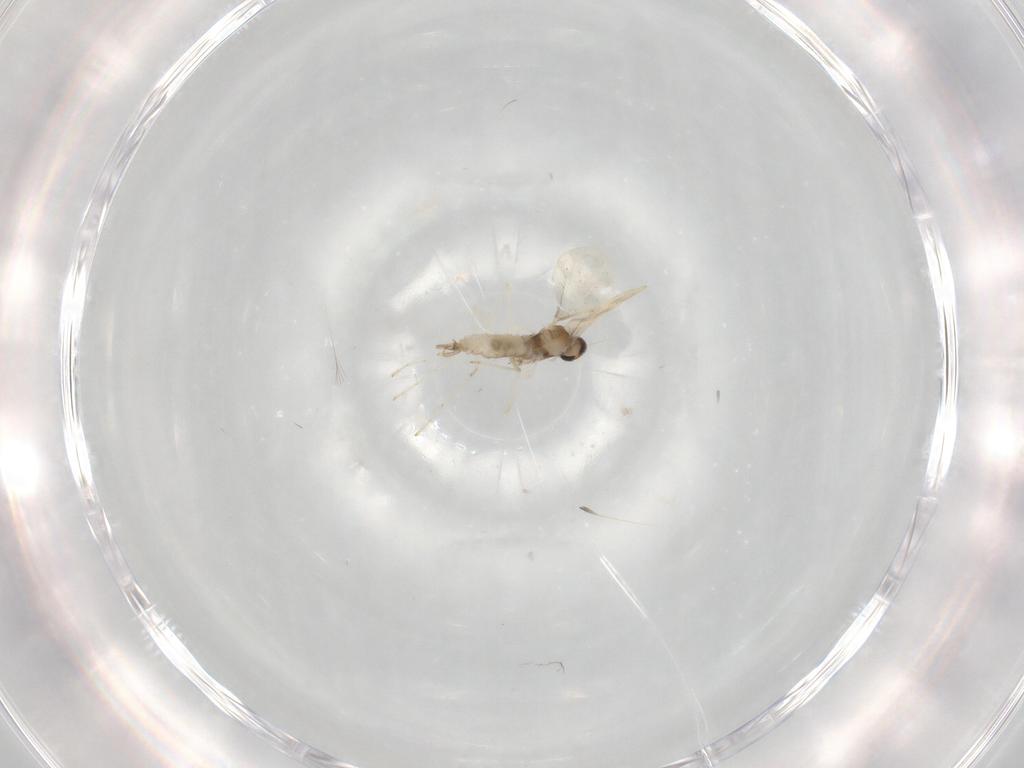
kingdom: Animalia
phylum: Arthropoda
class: Insecta
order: Diptera
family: Cecidomyiidae
